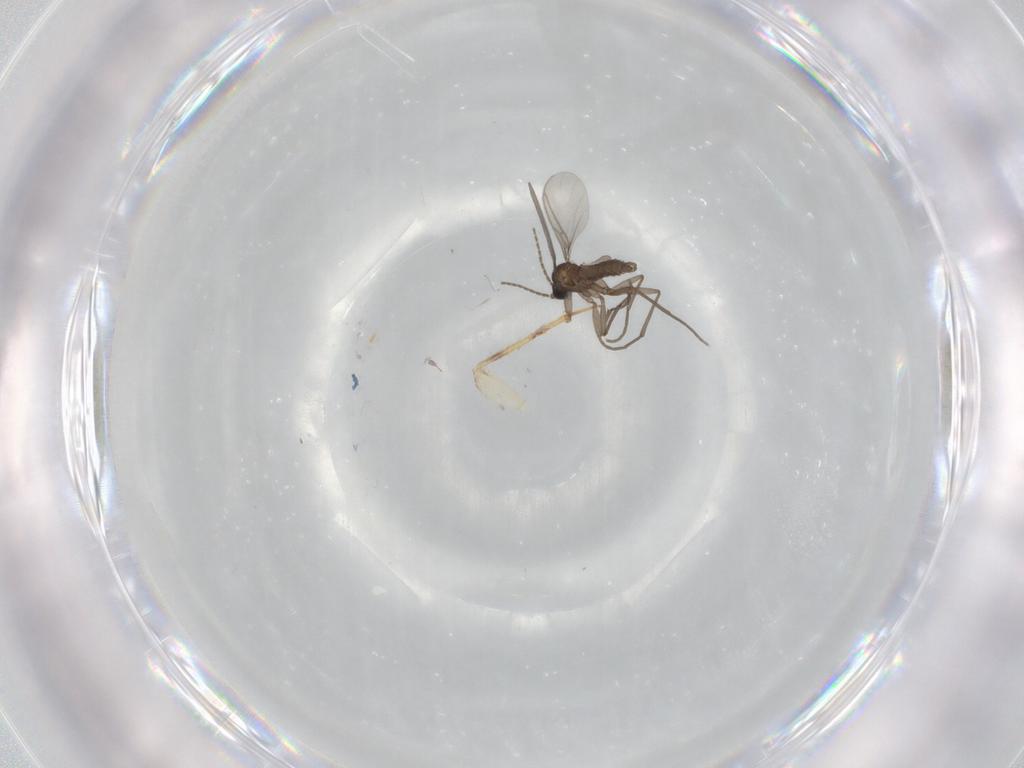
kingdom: Animalia
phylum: Arthropoda
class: Insecta
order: Diptera
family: Sciaridae
